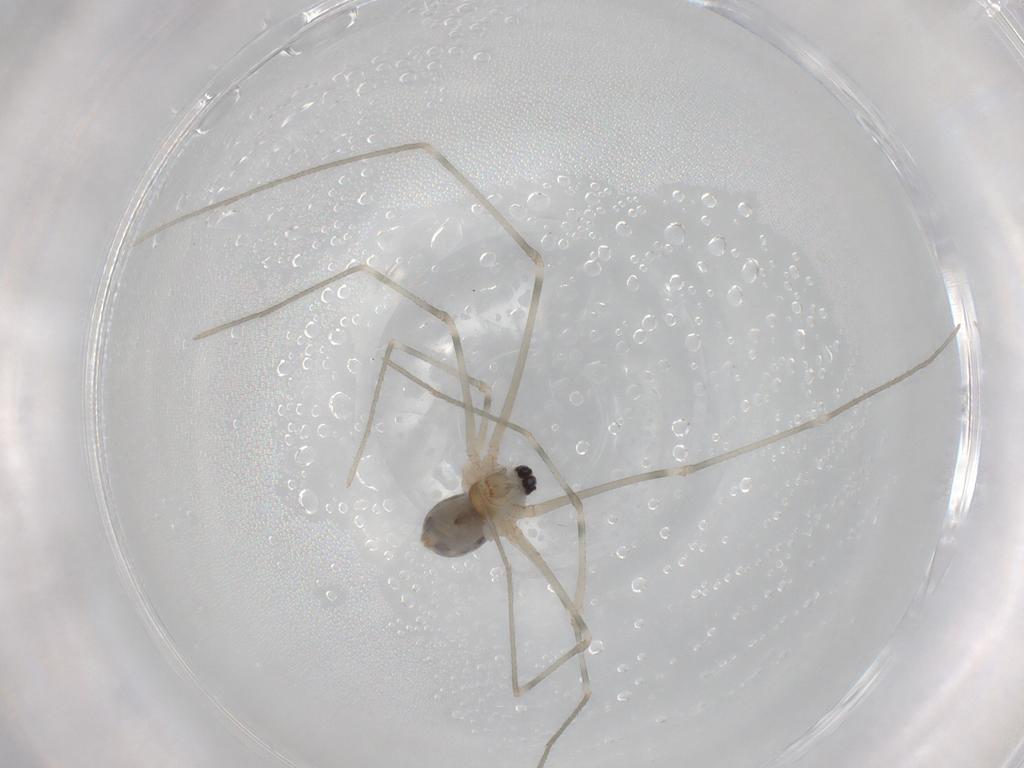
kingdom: Animalia
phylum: Arthropoda
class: Arachnida
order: Araneae
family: Pholcidae
